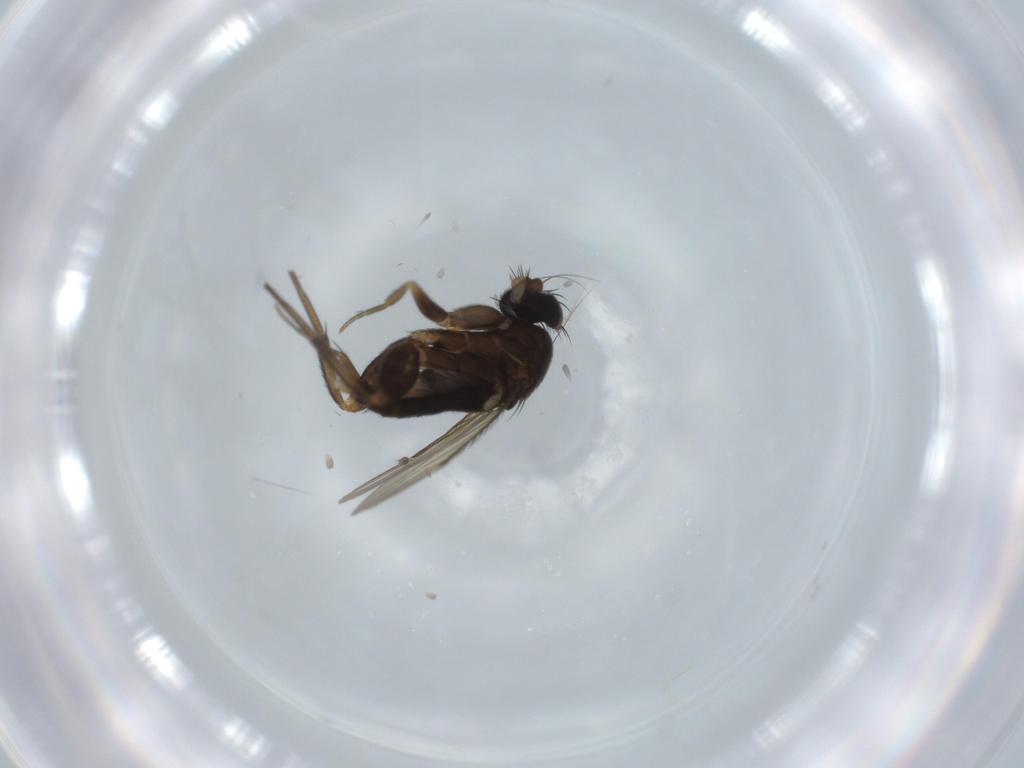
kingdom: Animalia
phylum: Arthropoda
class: Insecta
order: Diptera
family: Phoridae
